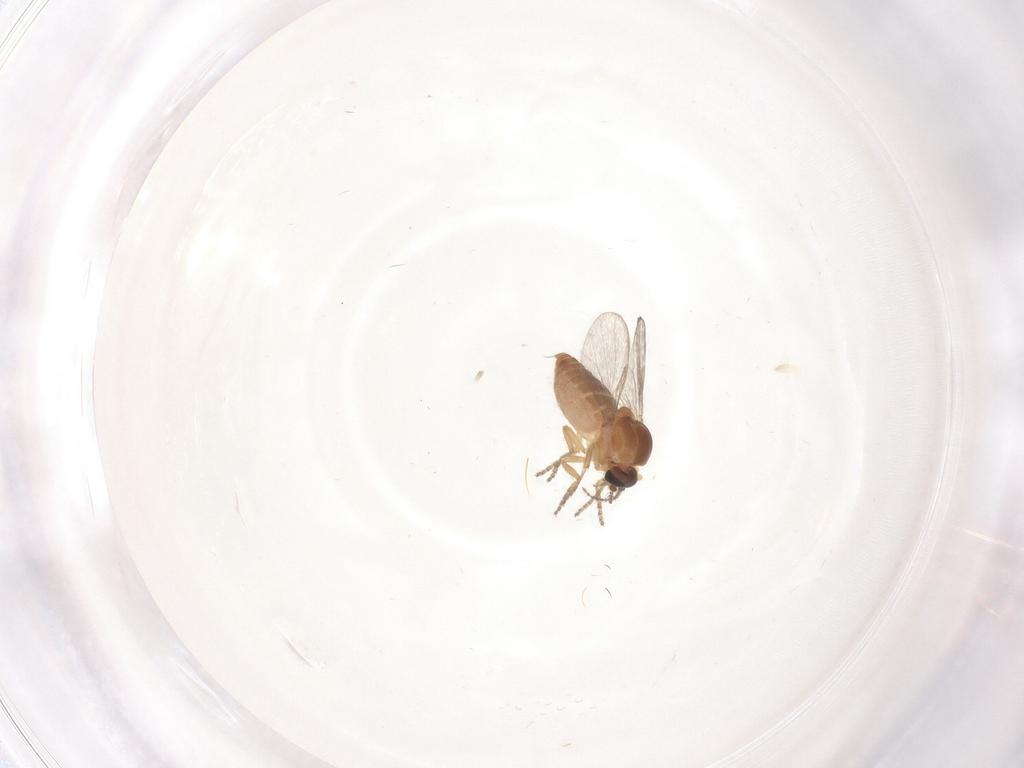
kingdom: Animalia
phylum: Arthropoda
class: Insecta
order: Diptera
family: Ceratopogonidae
